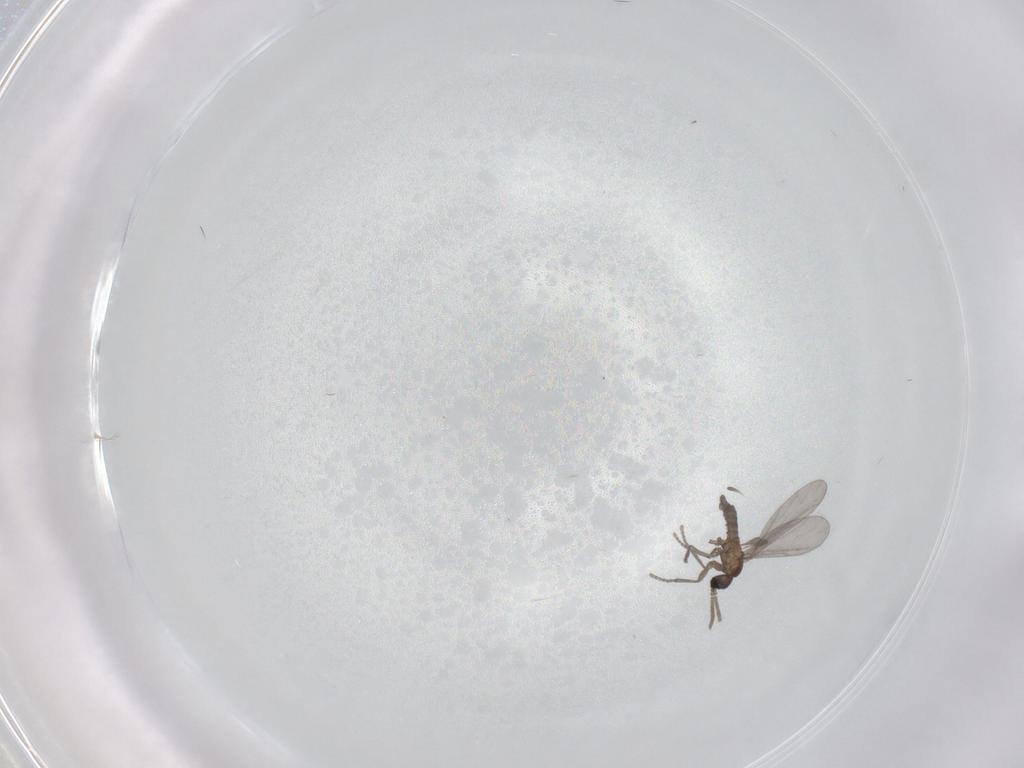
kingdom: Animalia
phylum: Arthropoda
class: Insecta
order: Diptera
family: Sciaridae
